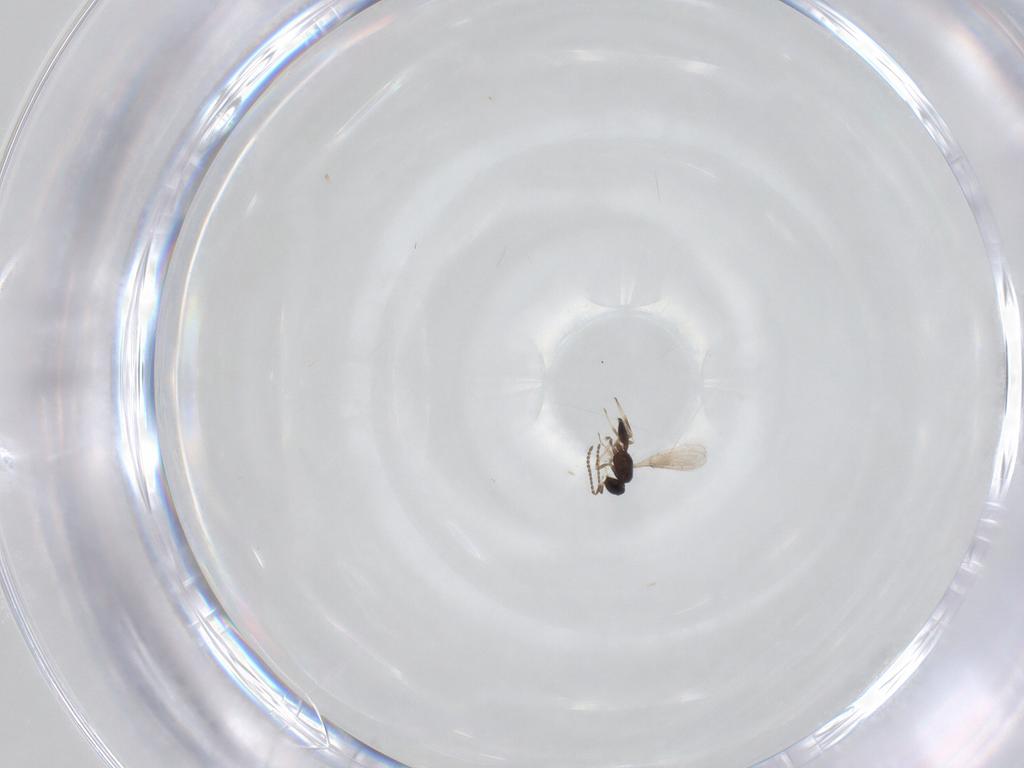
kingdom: Animalia
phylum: Arthropoda
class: Insecta
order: Hymenoptera
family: Scelionidae
